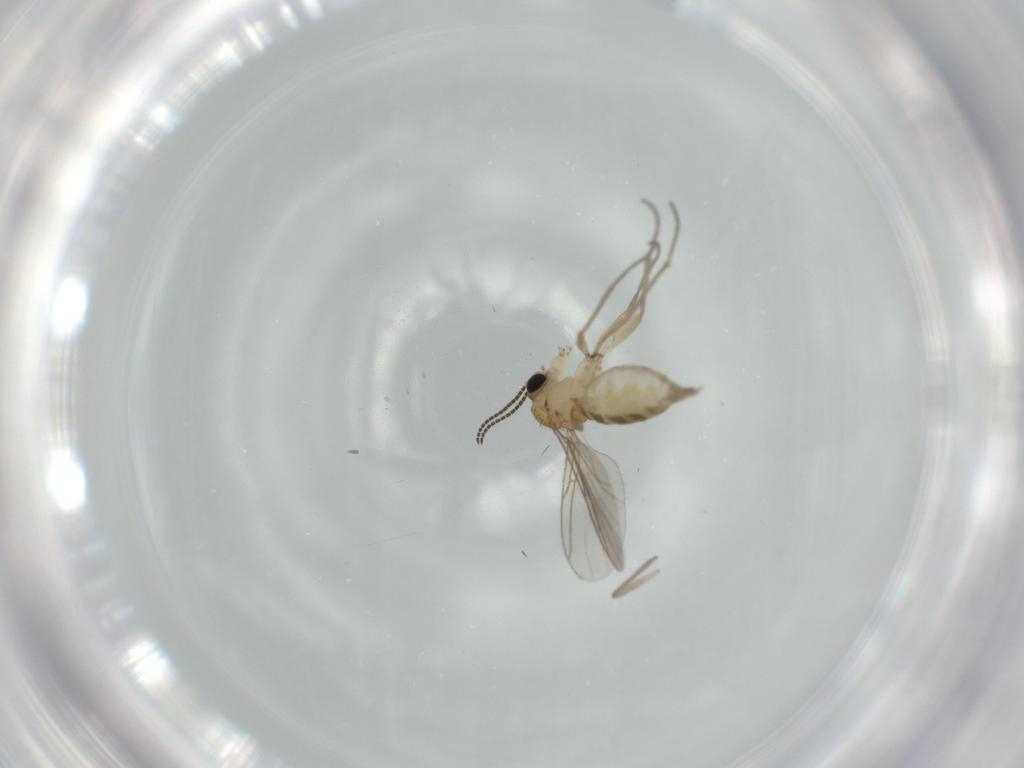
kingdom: Animalia
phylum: Arthropoda
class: Insecta
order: Diptera
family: Sciaridae
